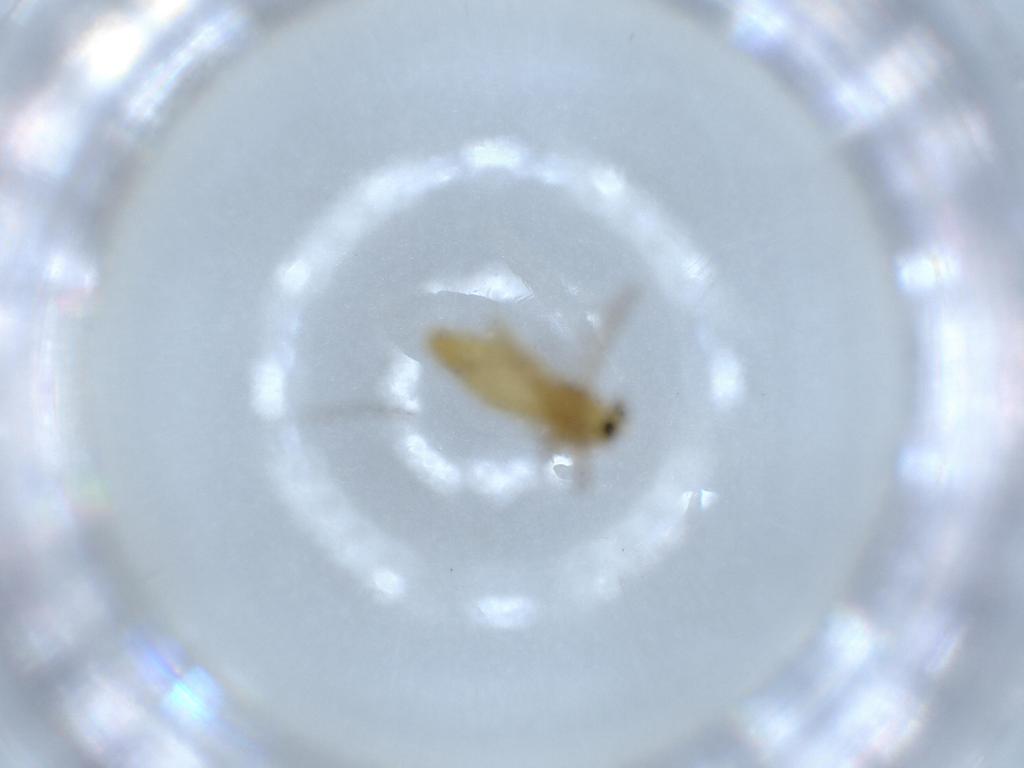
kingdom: Animalia
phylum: Arthropoda
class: Insecta
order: Diptera
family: Chironomidae
